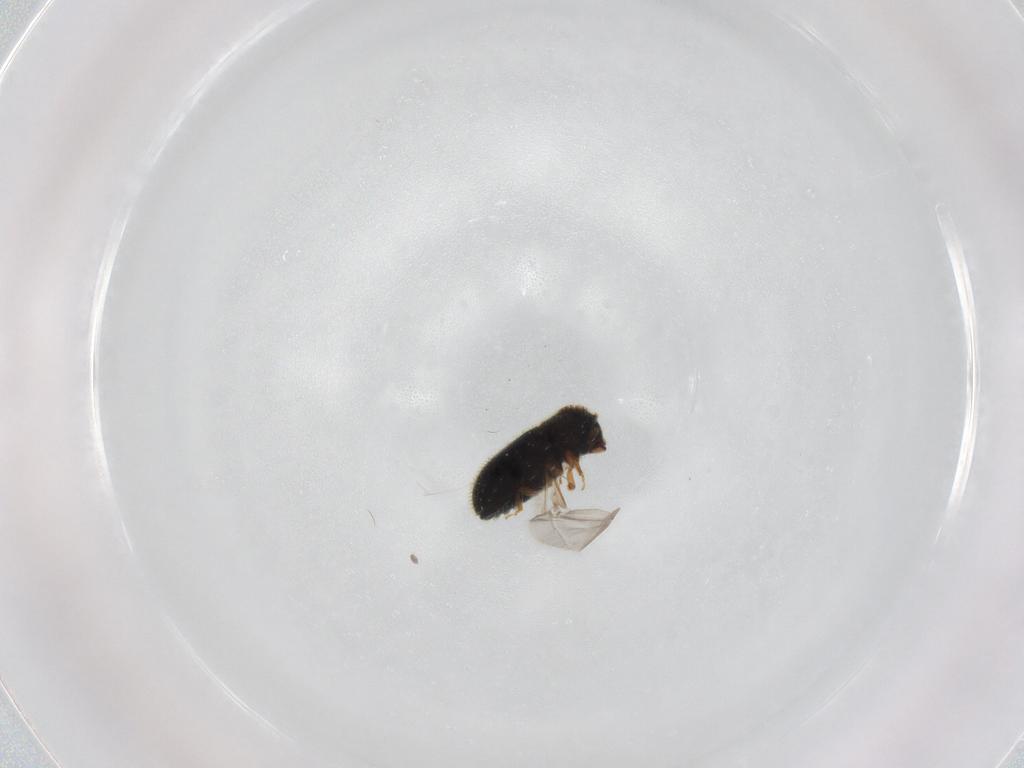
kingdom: Animalia
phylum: Arthropoda
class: Insecta
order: Coleoptera
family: Curculionidae
